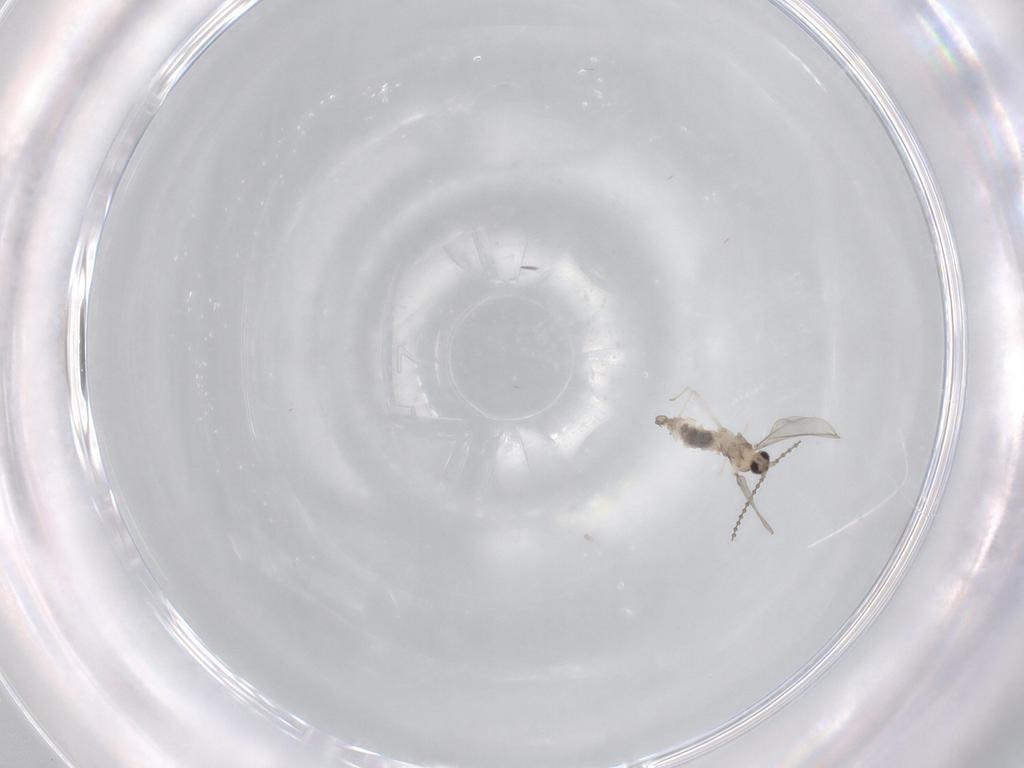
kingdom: Animalia
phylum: Arthropoda
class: Insecta
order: Diptera
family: Cecidomyiidae
